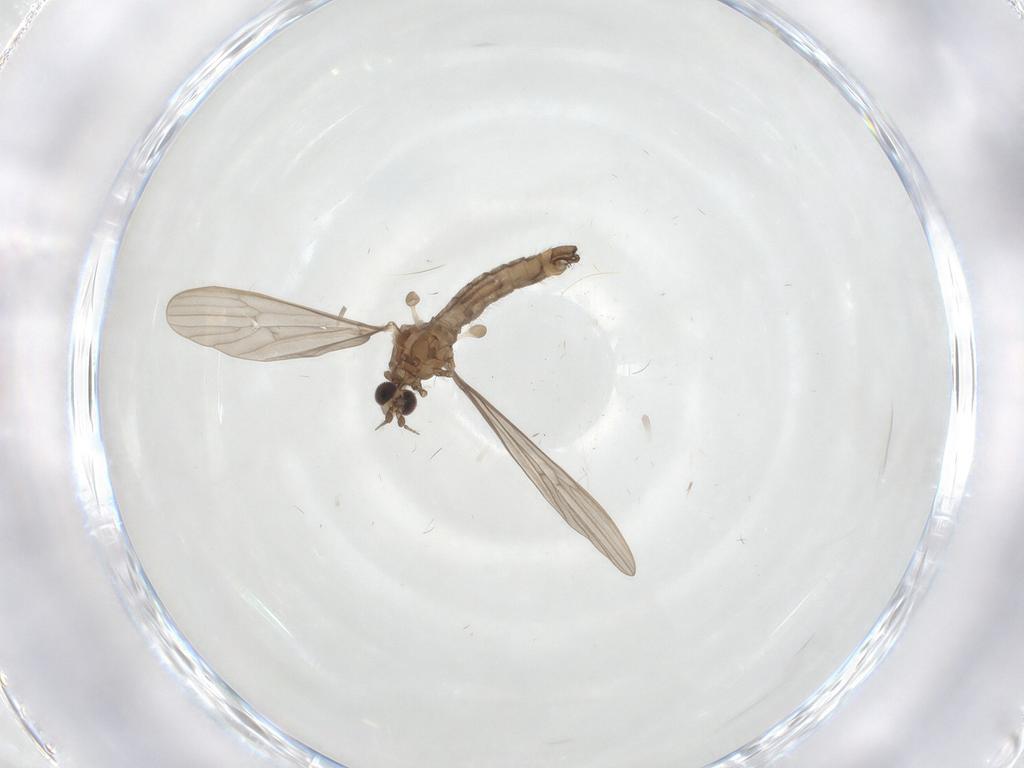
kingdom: Animalia
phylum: Arthropoda
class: Insecta
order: Diptera
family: Limoniidae
